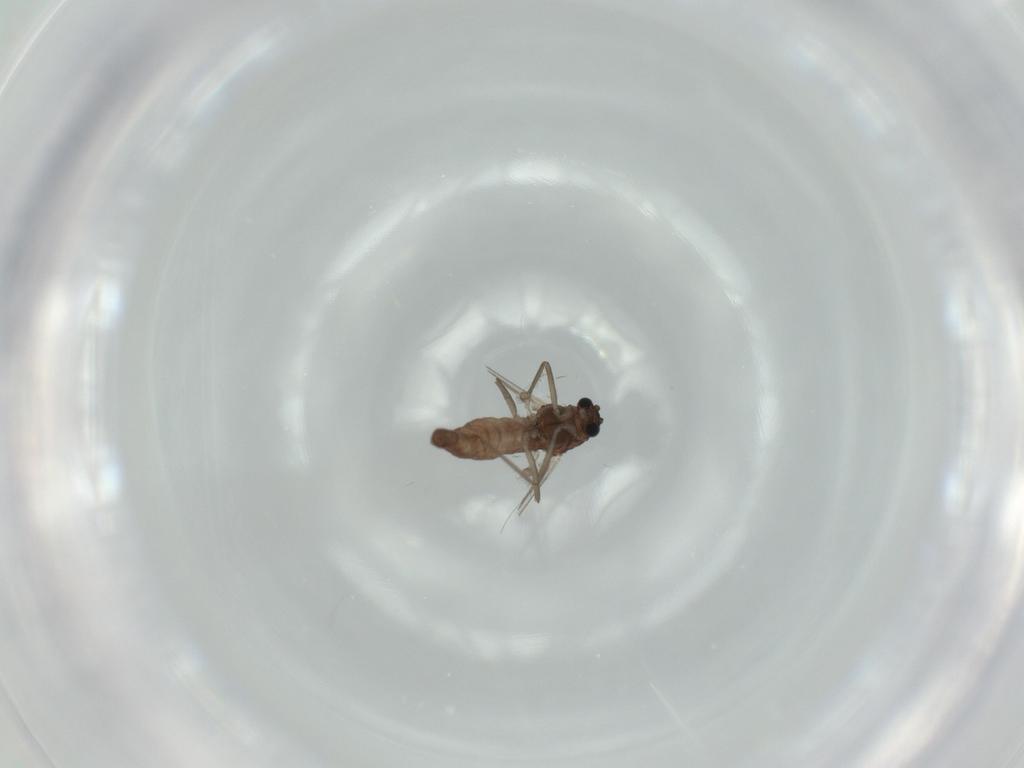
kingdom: Animalia
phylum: Arthropoda
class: Insecta
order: Diptera
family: Chironomidae
